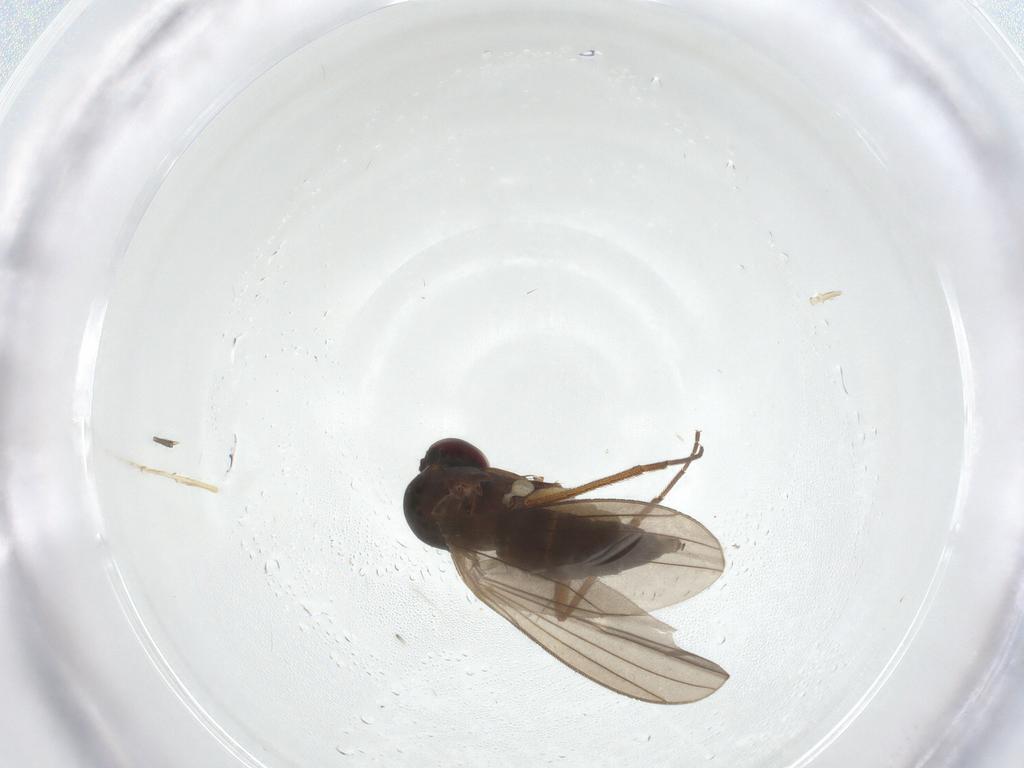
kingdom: Animalia
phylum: Arthropoda
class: Insecta
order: Diptera
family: Dolichopodidae
